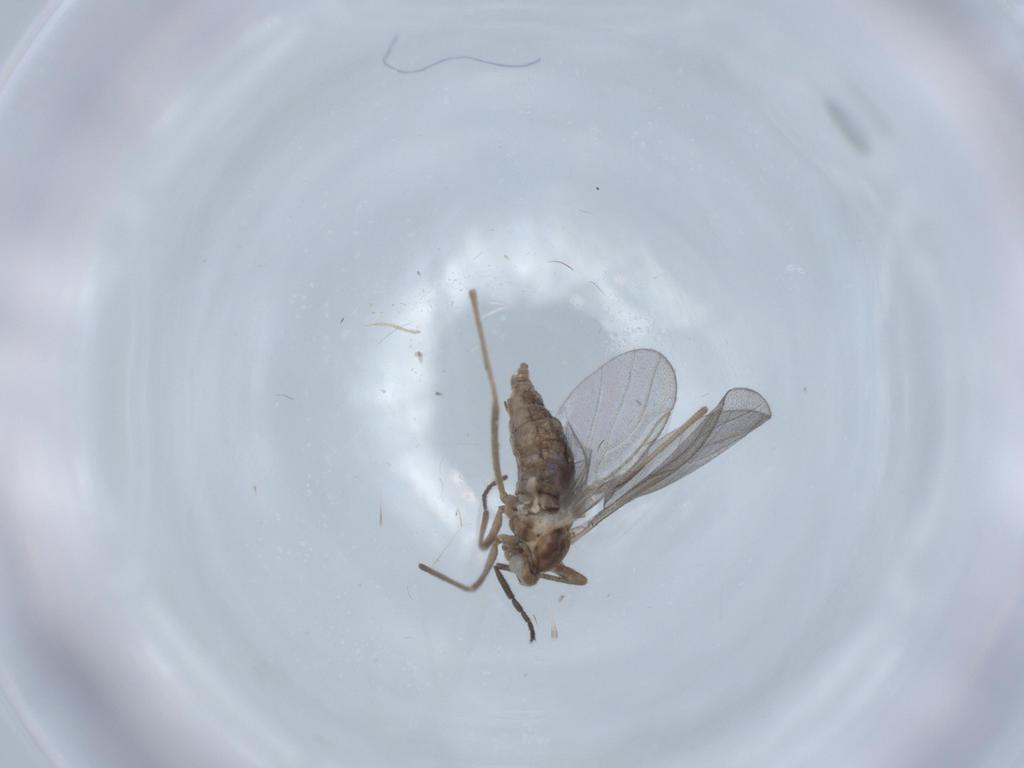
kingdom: Animalia
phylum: Arthropoda
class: Insecta
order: Diptera
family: Cecidomyiidae
